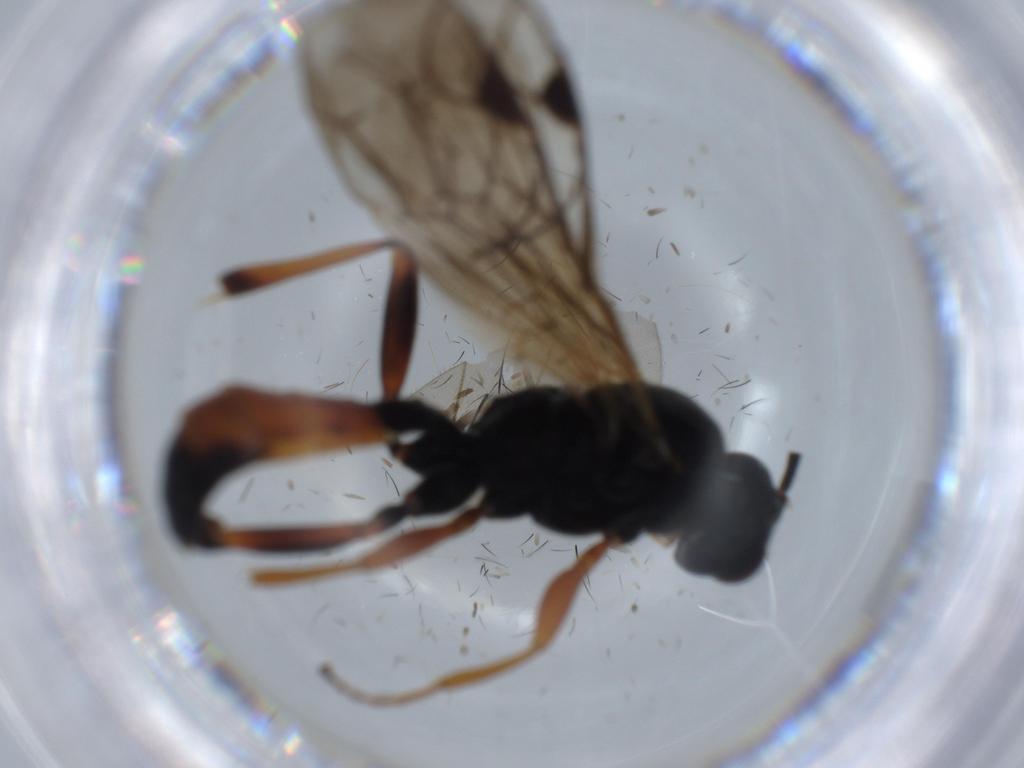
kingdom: Animalia
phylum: Arthropoda
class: Insecta
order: Hymenoptera
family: Ichneumonidae
